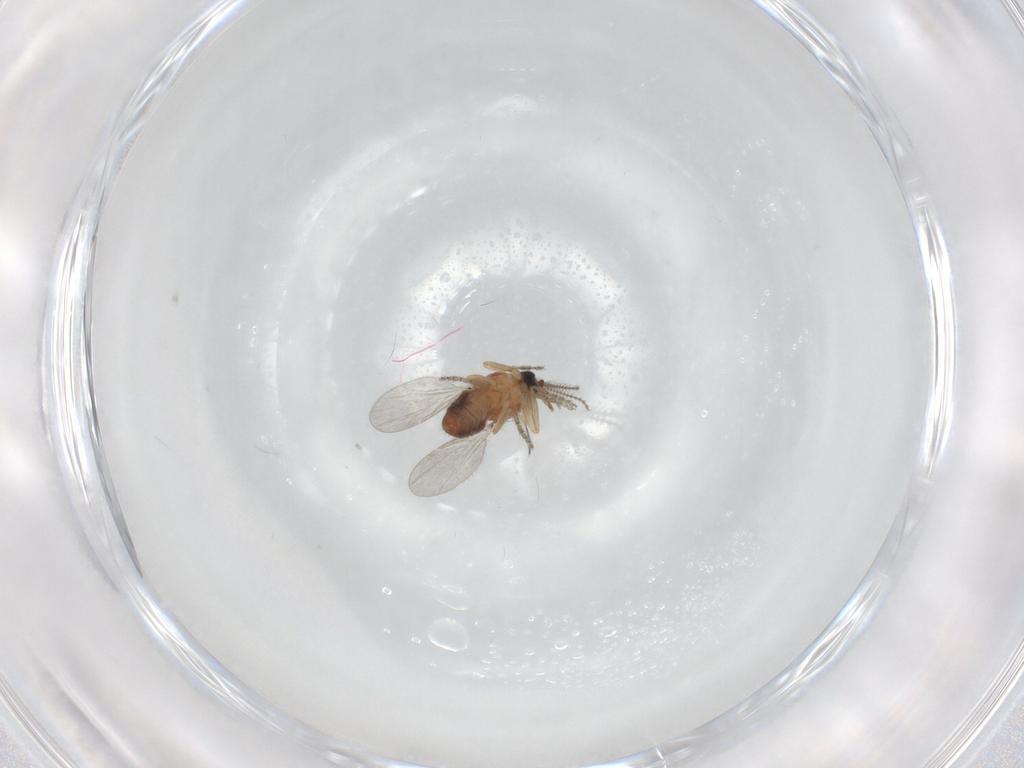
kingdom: Animalia
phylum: Arthropoda
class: Insecta
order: Diptera
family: Ceratopogonidae
